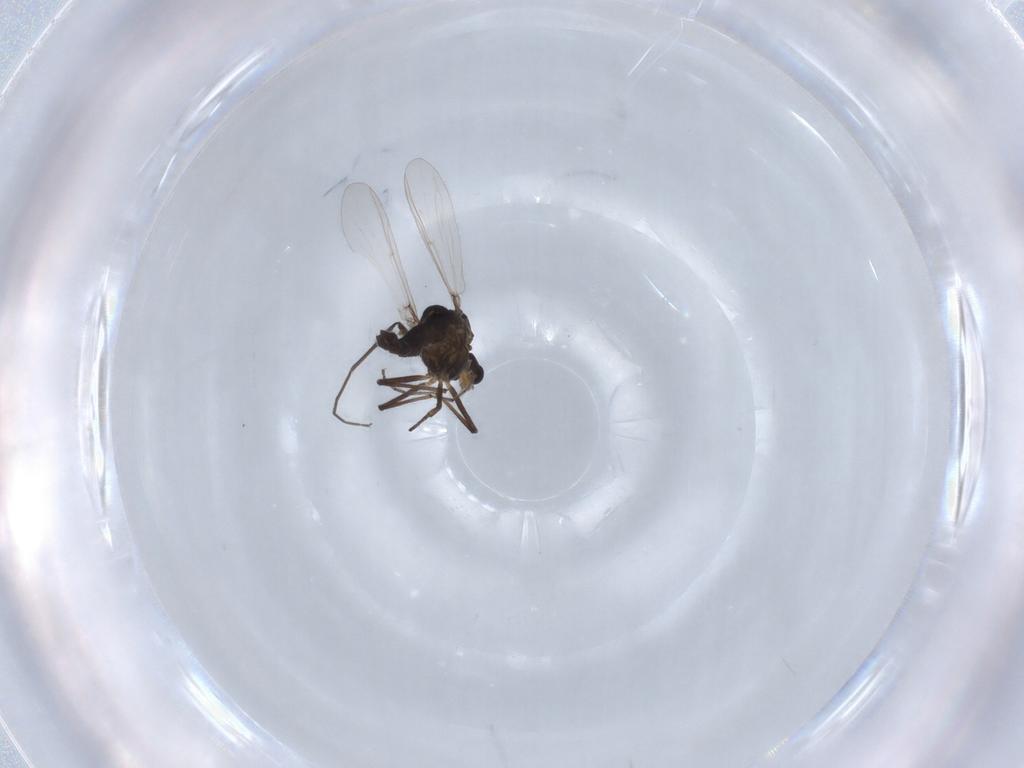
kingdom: Animalia
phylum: Arthropoda
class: Insecta
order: Diptera
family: Chironomidae
